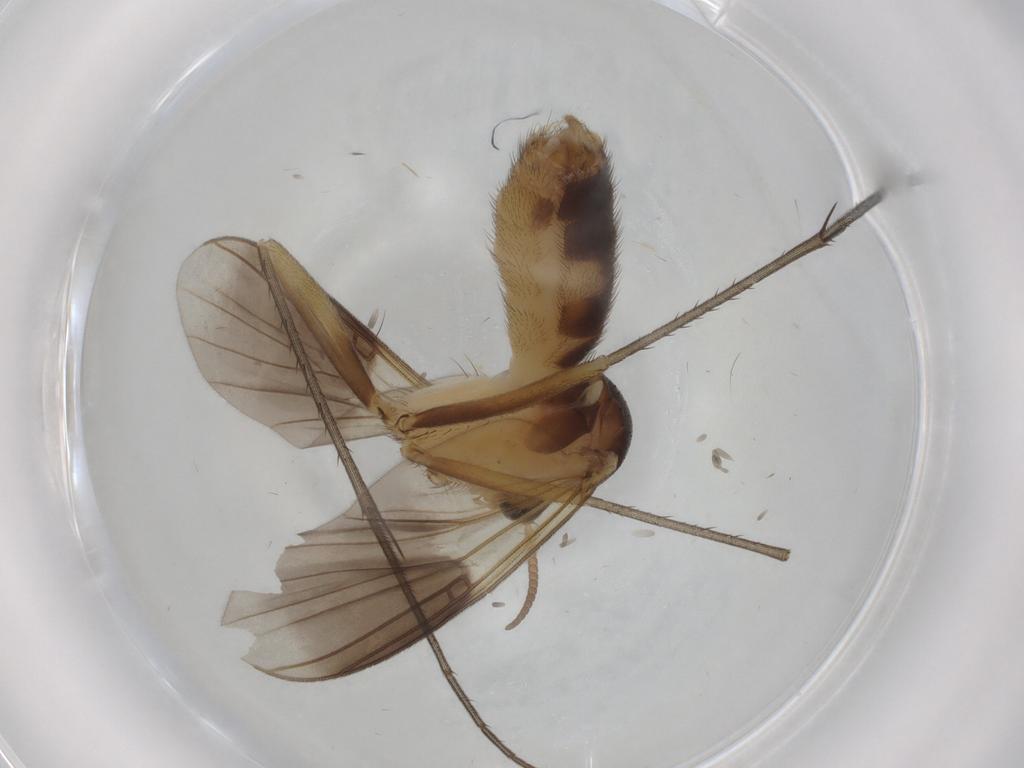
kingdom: Animalia
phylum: Arthropoda
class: Insecta
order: Diptera
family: Mycetophilidae
